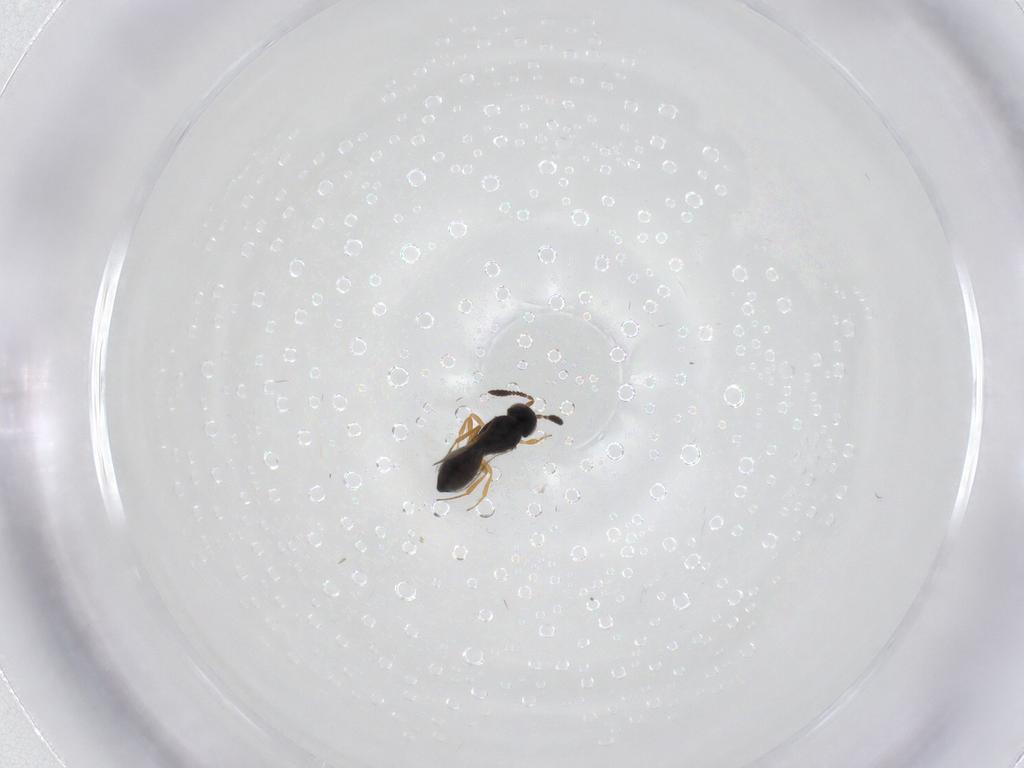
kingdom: Animalia
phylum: Arthropoda
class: Insecta
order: Hymenoptera
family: Scelionidae
